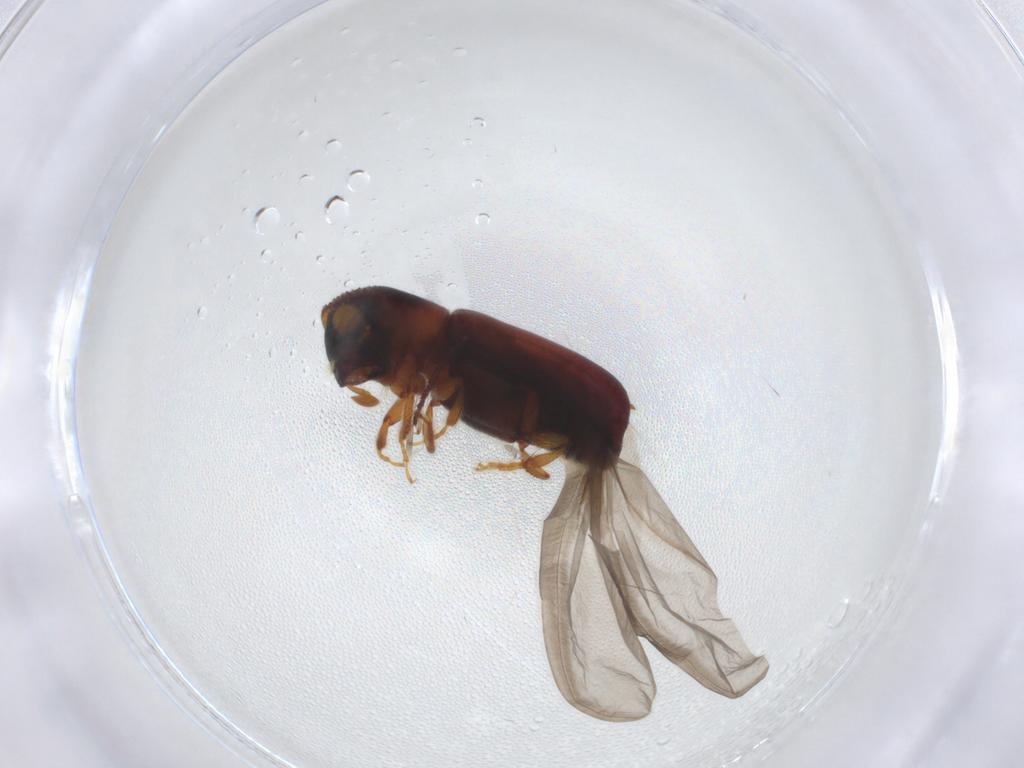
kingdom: Animalia
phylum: Arthropoda
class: Insecta
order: Coleoptera
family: Curculionidae
